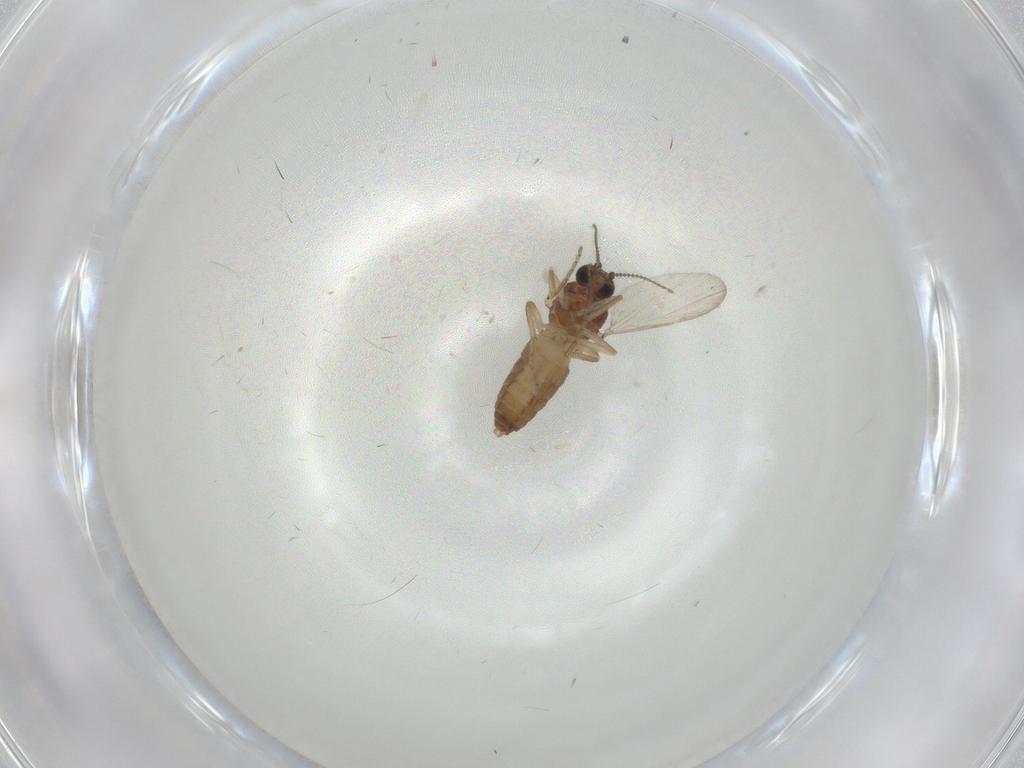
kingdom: Animalia
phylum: Arthropoda
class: Insecta
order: Diptera
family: Ceratopogonidae
